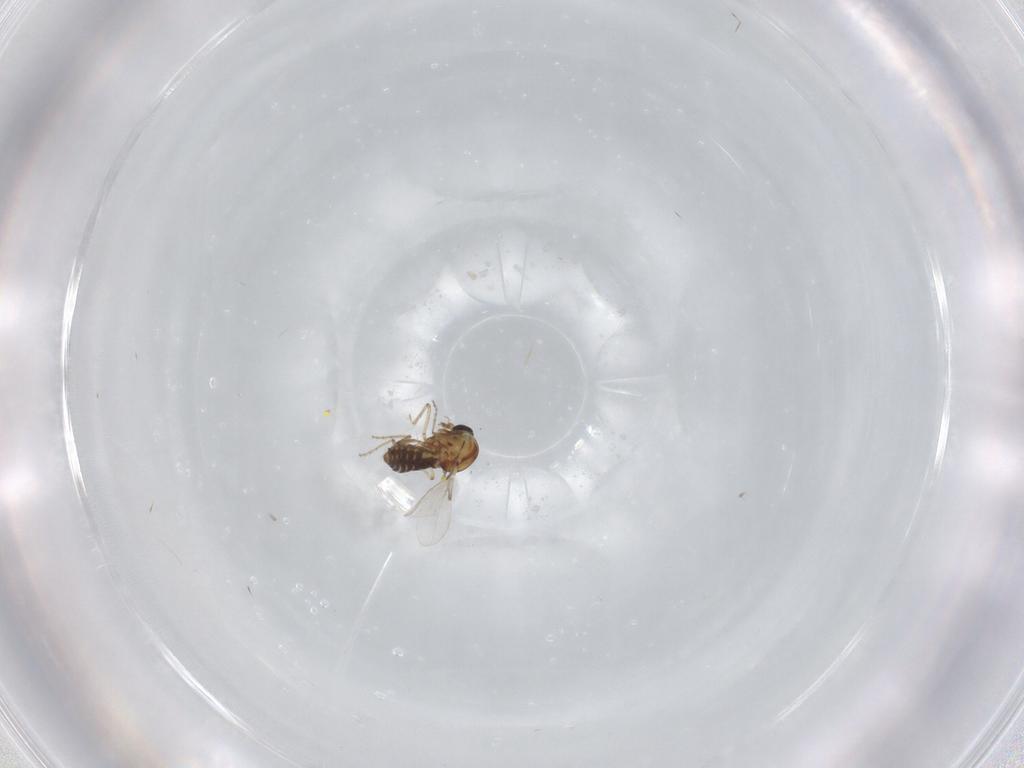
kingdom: Animalia
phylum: Arthropoda
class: Insecta
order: Diptera
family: Ceratopogonidae
